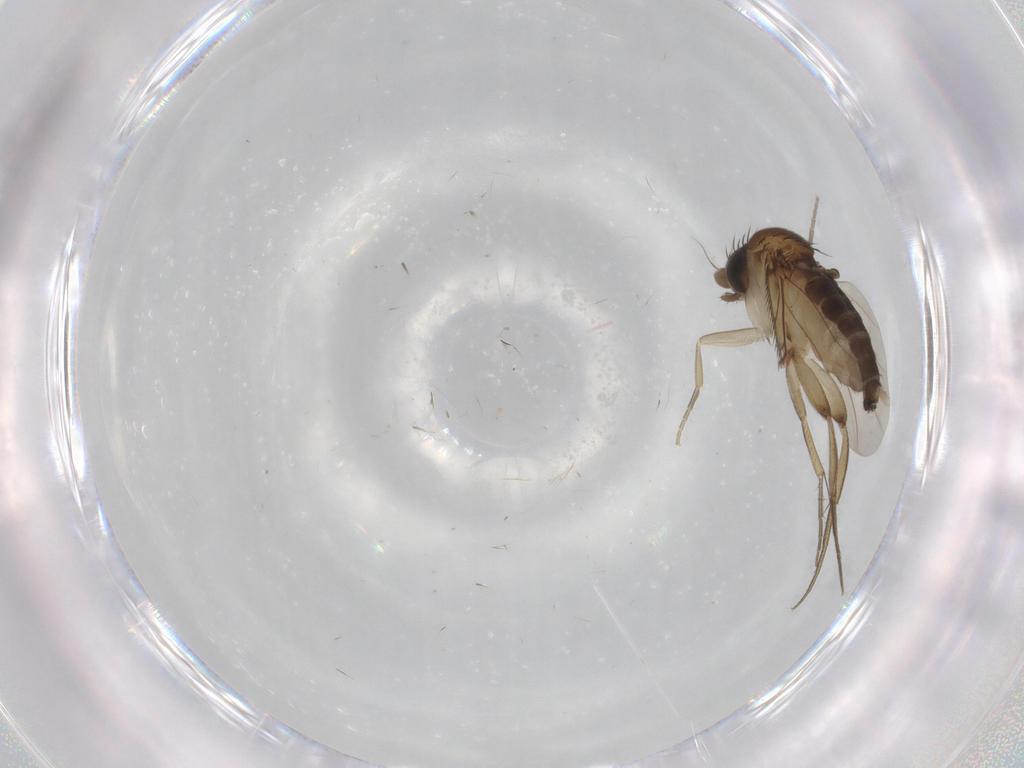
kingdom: Animalia
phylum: Arthropoda
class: Insecta
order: Diptera
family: Phoridae
